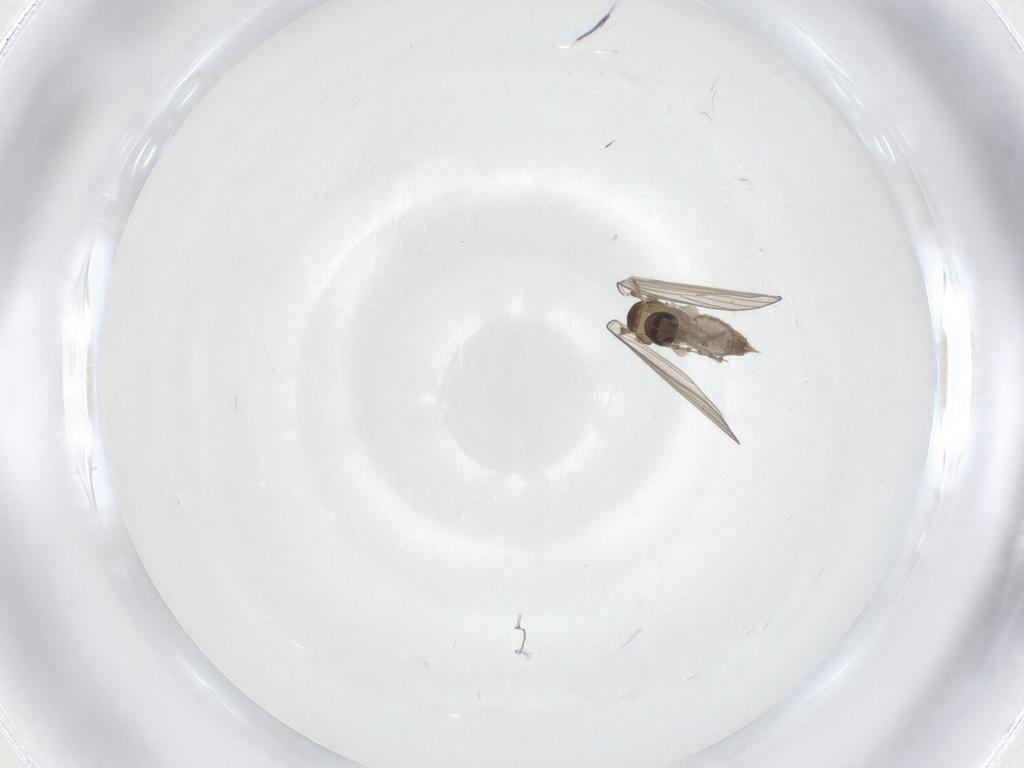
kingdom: Animalia
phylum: Arthropoda
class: Insecta
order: Diptera
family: Psychodidae
